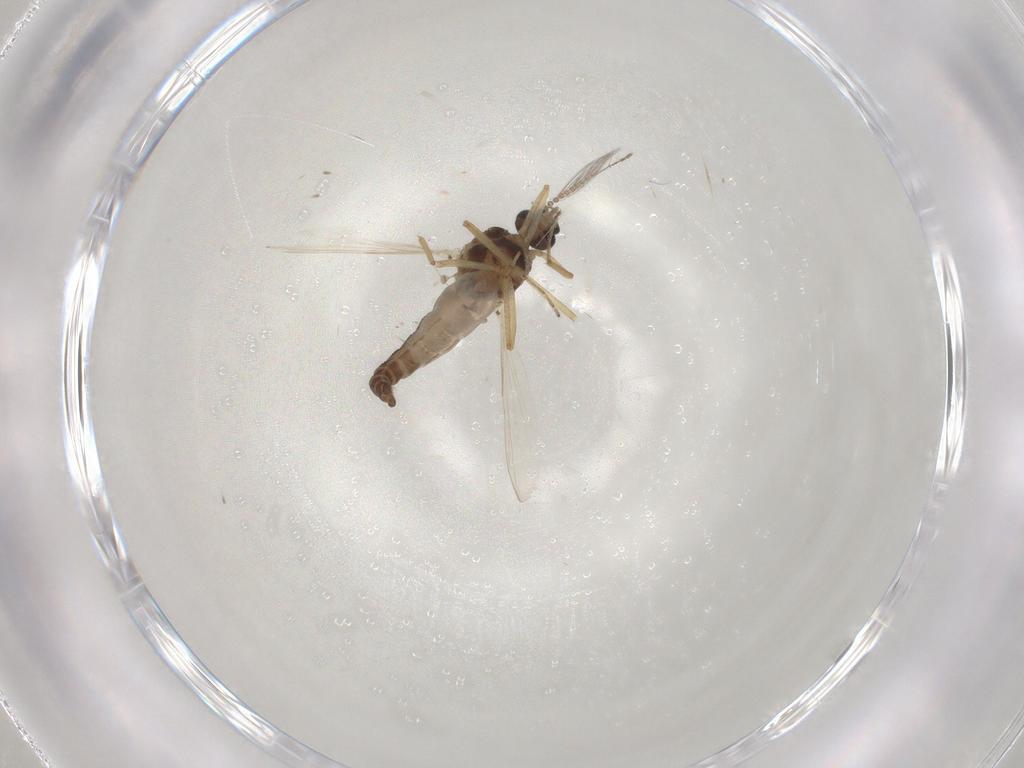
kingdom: Animalia
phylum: Arthropoda
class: Insecta
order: Diptera
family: Ceratopogonidae
